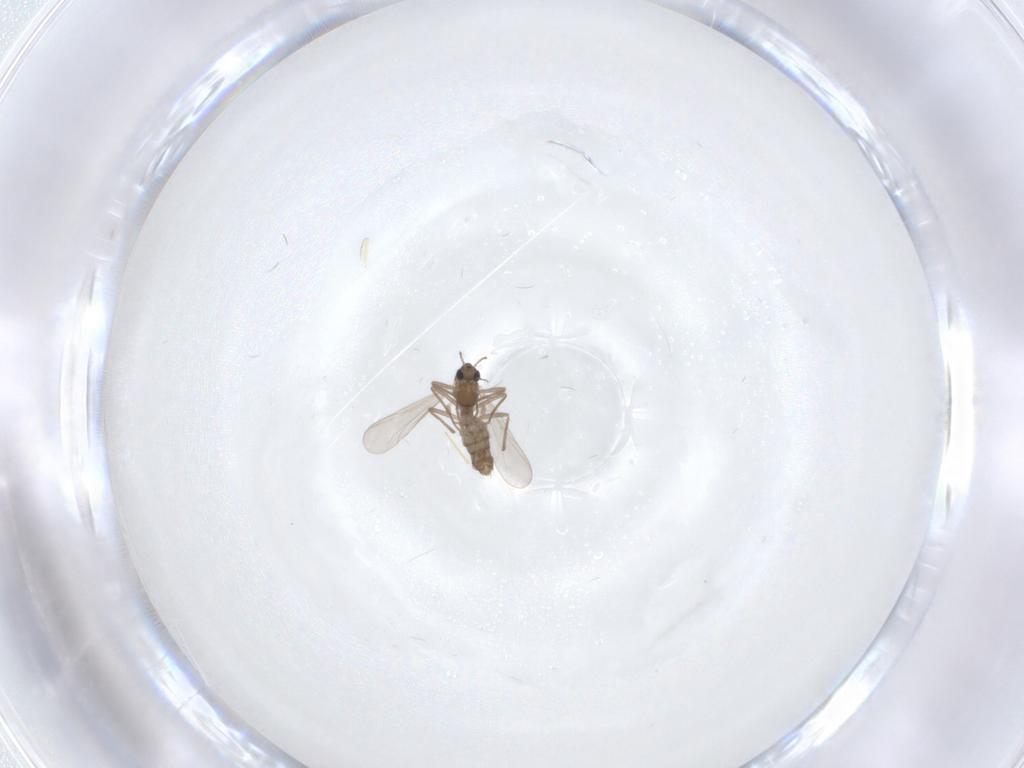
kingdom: Animalia
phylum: Arthropoda
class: Insecta
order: Diptera
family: Chironomidae
